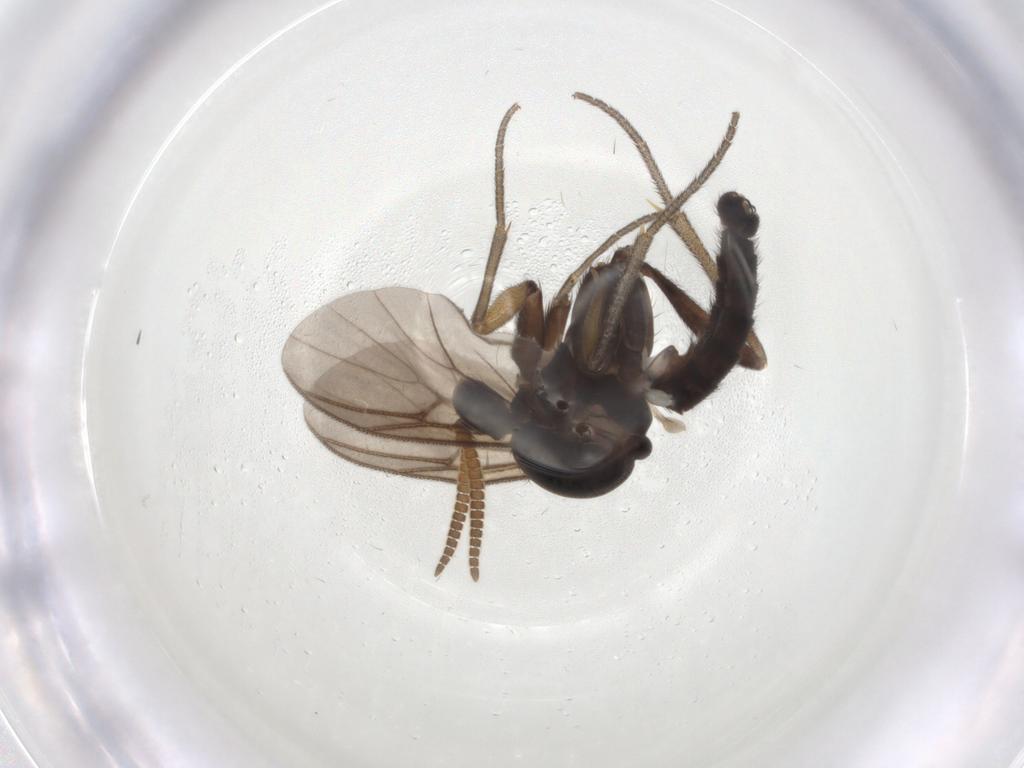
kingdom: Animalia
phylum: Arthropoda
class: Insecta
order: Diptera
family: Mycetophilidae
